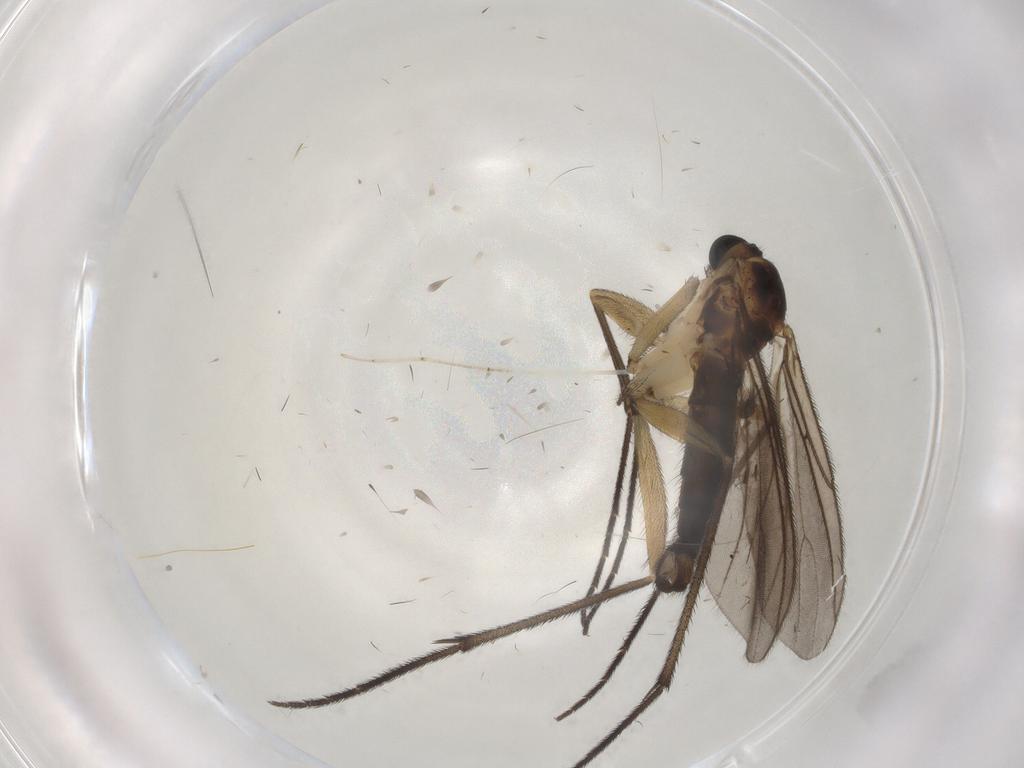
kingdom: Animalia
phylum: Arthropoda
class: Insecta
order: Diptera
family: Sciaridae
